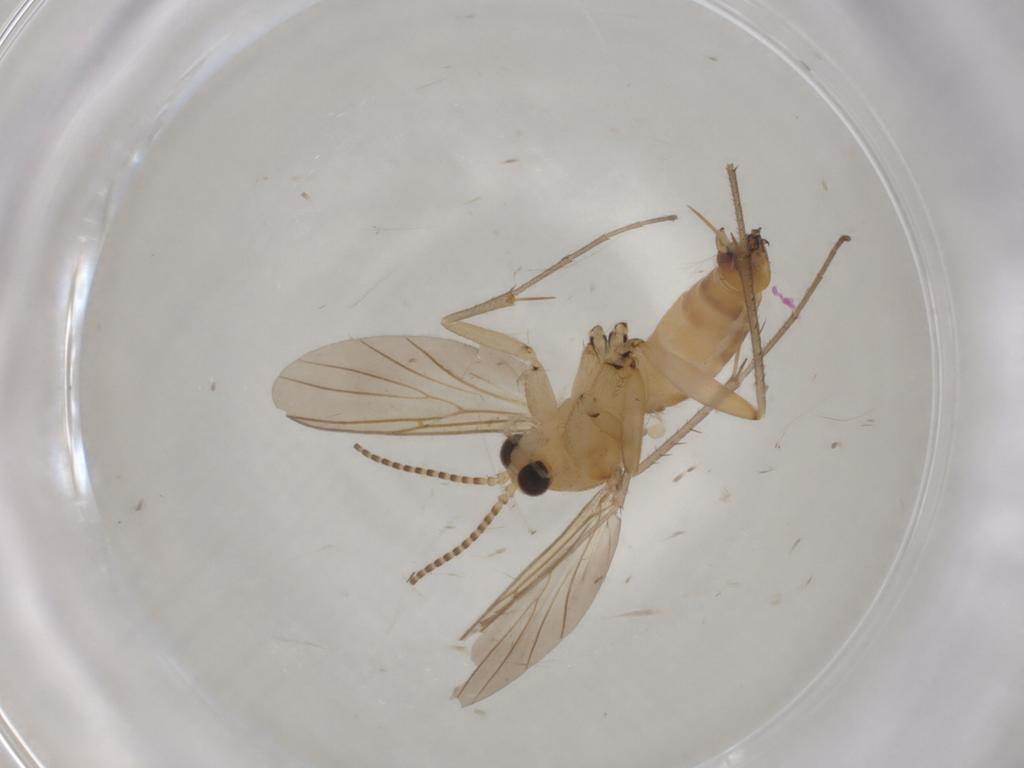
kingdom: Animalia
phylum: Arthropoda
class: Insecta
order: Diptera
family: Mycetophilidae
